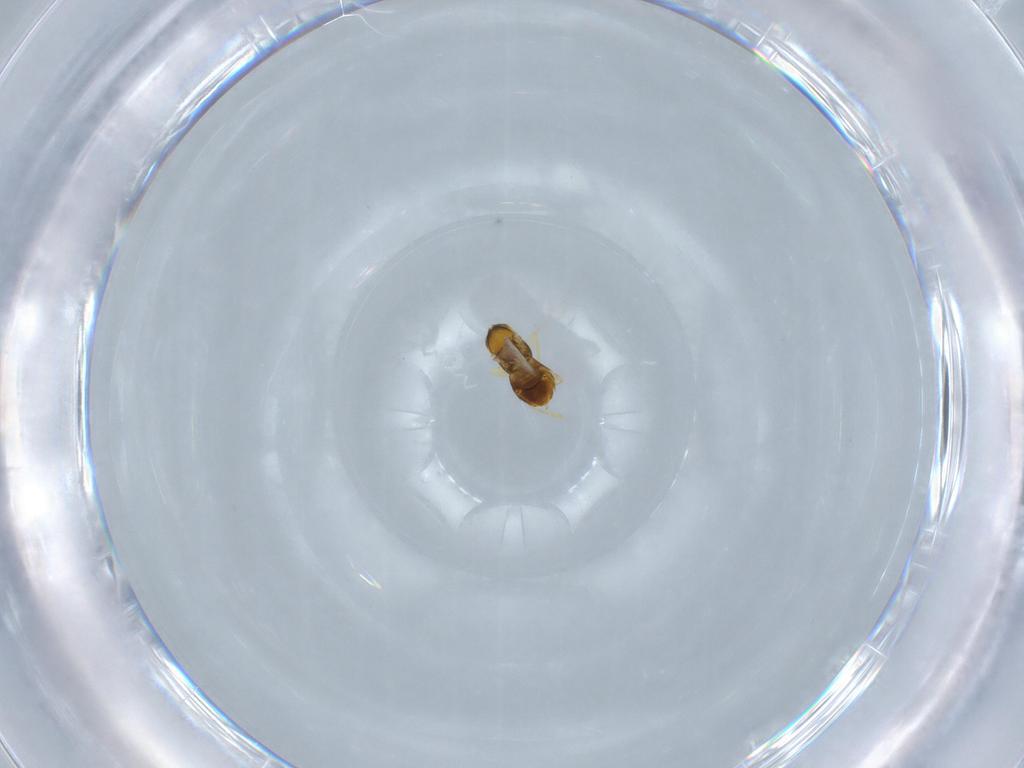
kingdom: Animalia
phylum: Arthropoda
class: Insecta
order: Hymenoptera
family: Encyrtidae
